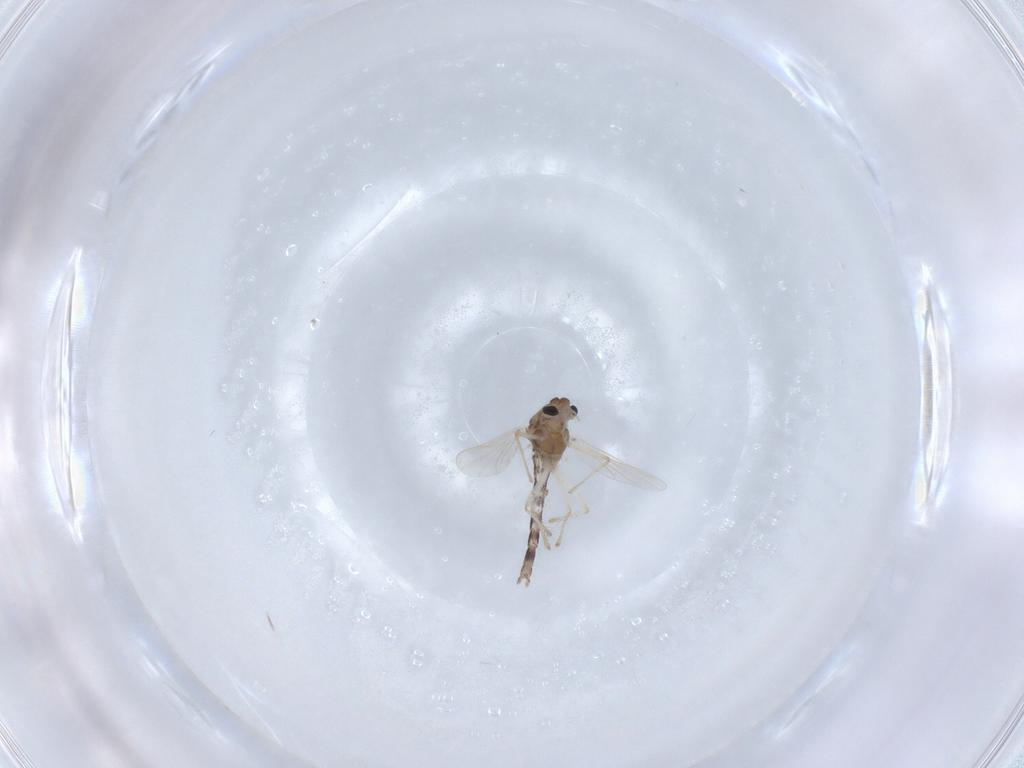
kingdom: Animalia
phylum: Arthropoda
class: Insecta
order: Diptera
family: Chironomidae
